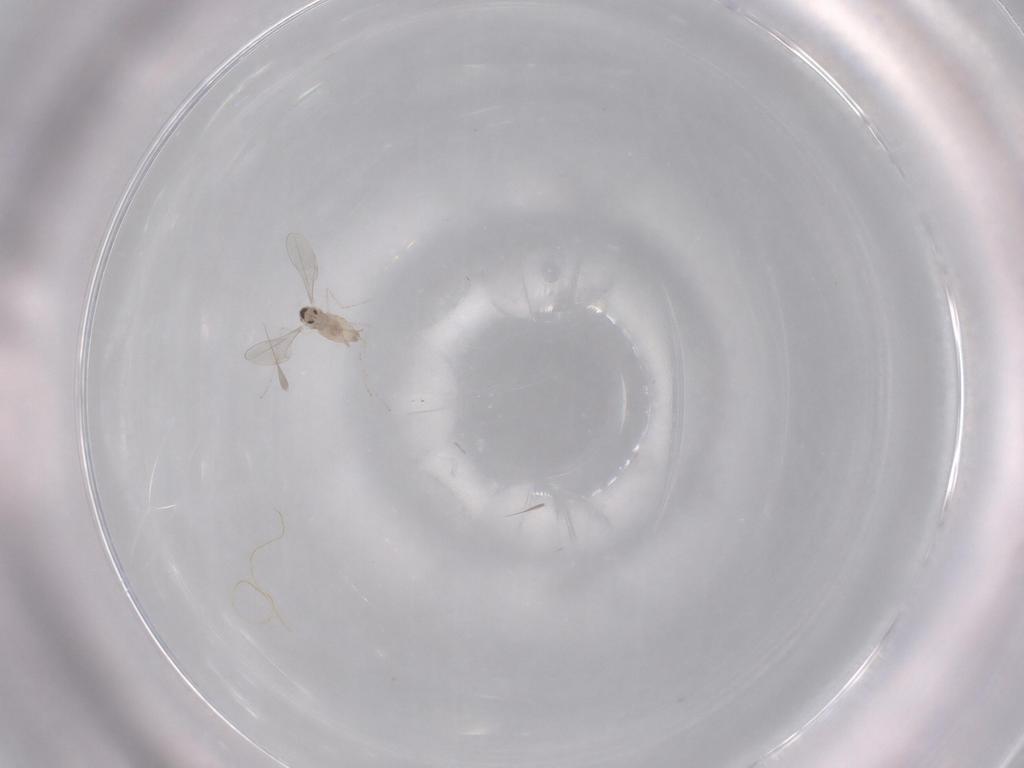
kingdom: Animalia
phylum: Arthropoda
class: Insecta
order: Diptera
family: Cecidomyiidae
